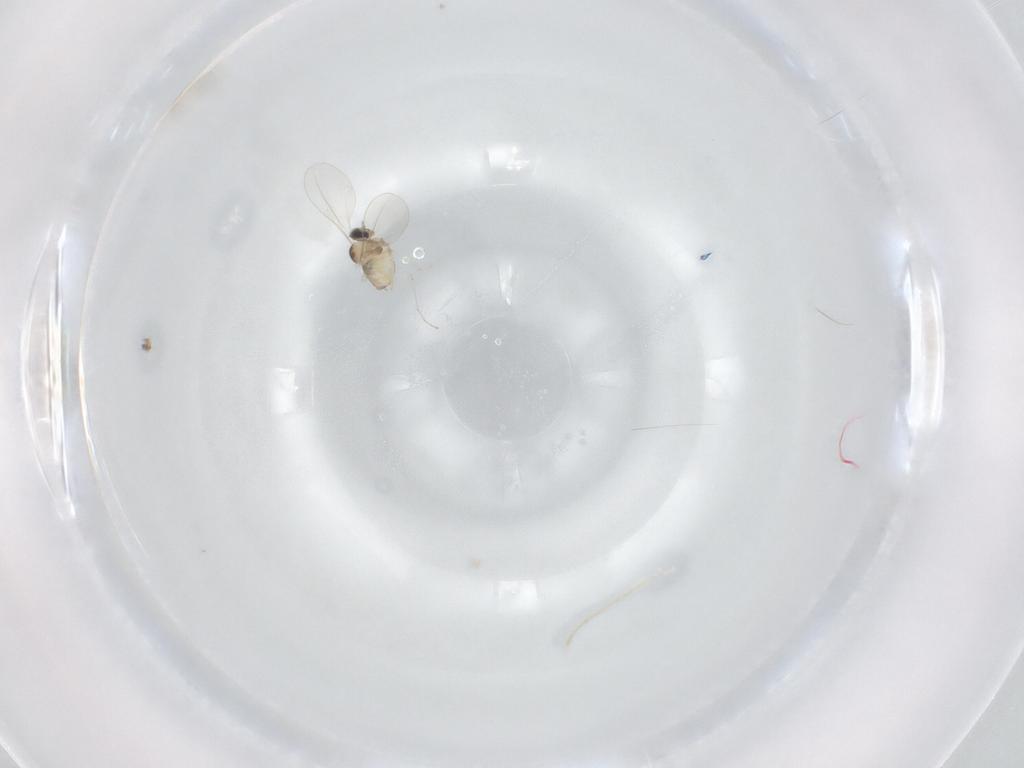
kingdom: Animalia
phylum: Arthropoda
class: Insecta
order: Diptera
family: Cecidomyiidae
